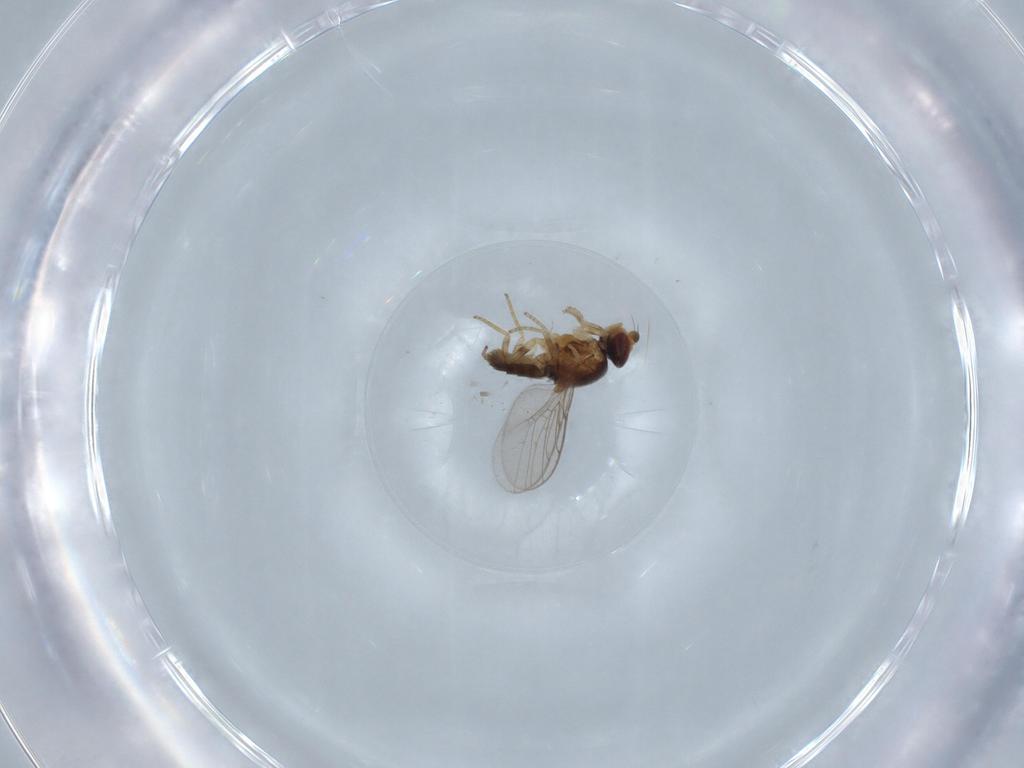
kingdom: Animalia
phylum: Arthropoda
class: Insecta
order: Diptera
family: Chloropidae
